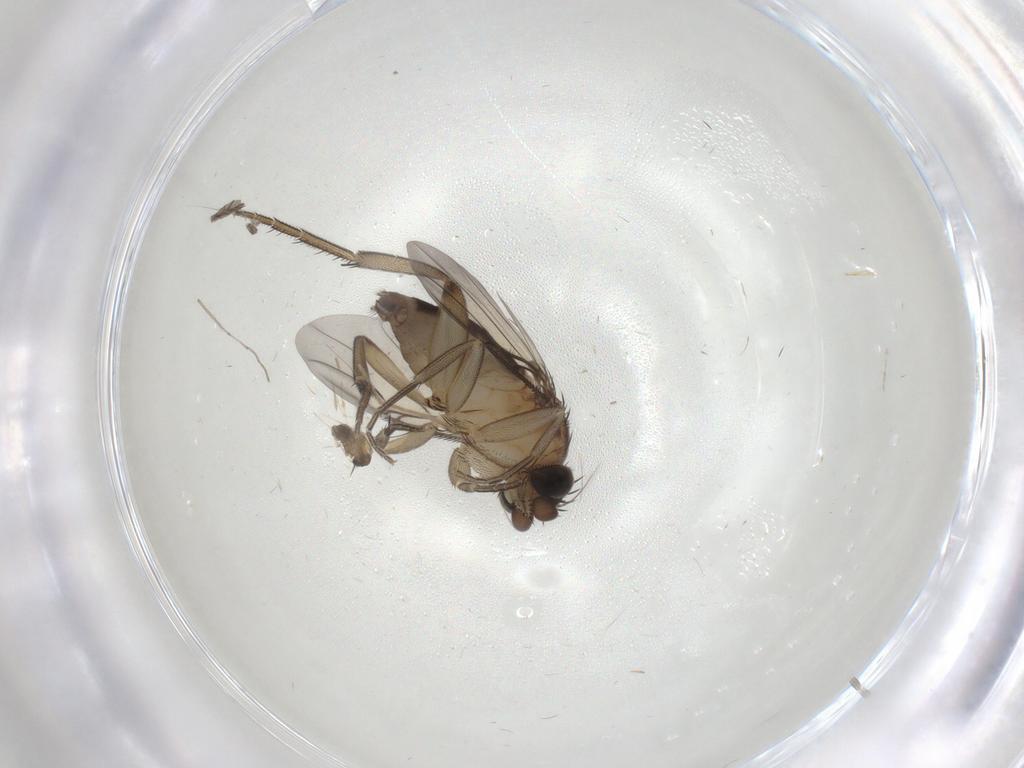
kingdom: Animalia
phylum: Arthropoda
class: Insecta
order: Diptera
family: Phoridae
